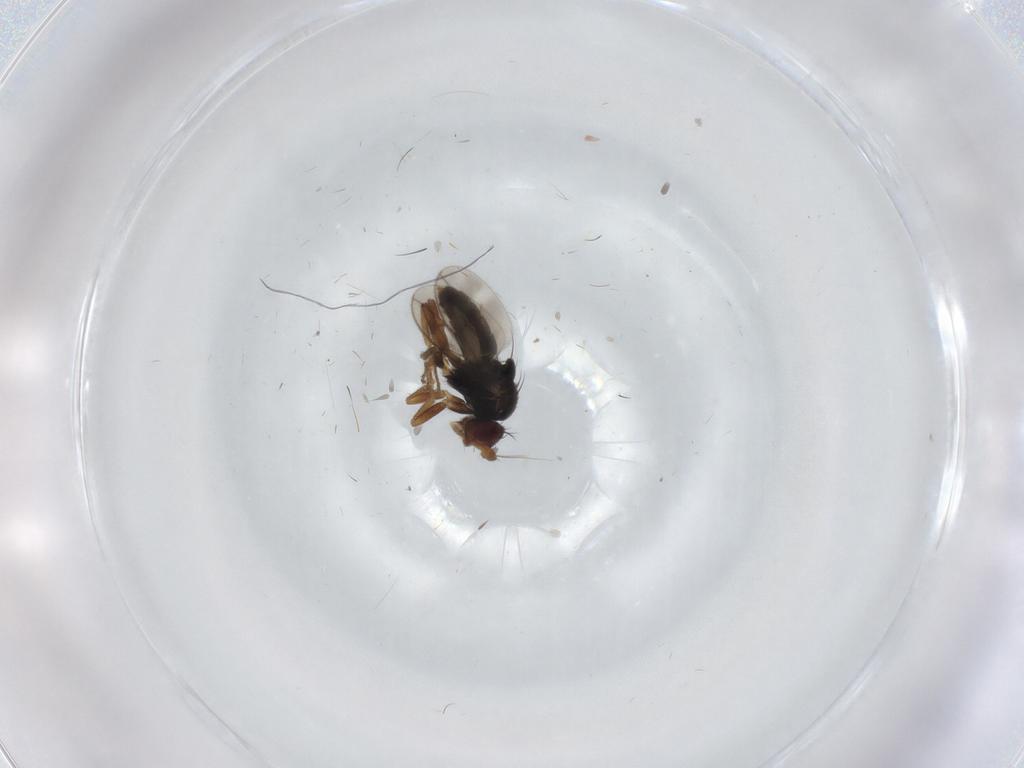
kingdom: Animalia
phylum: Arthropoda
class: Insecta
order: Diptera
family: Sphaeroceridae
